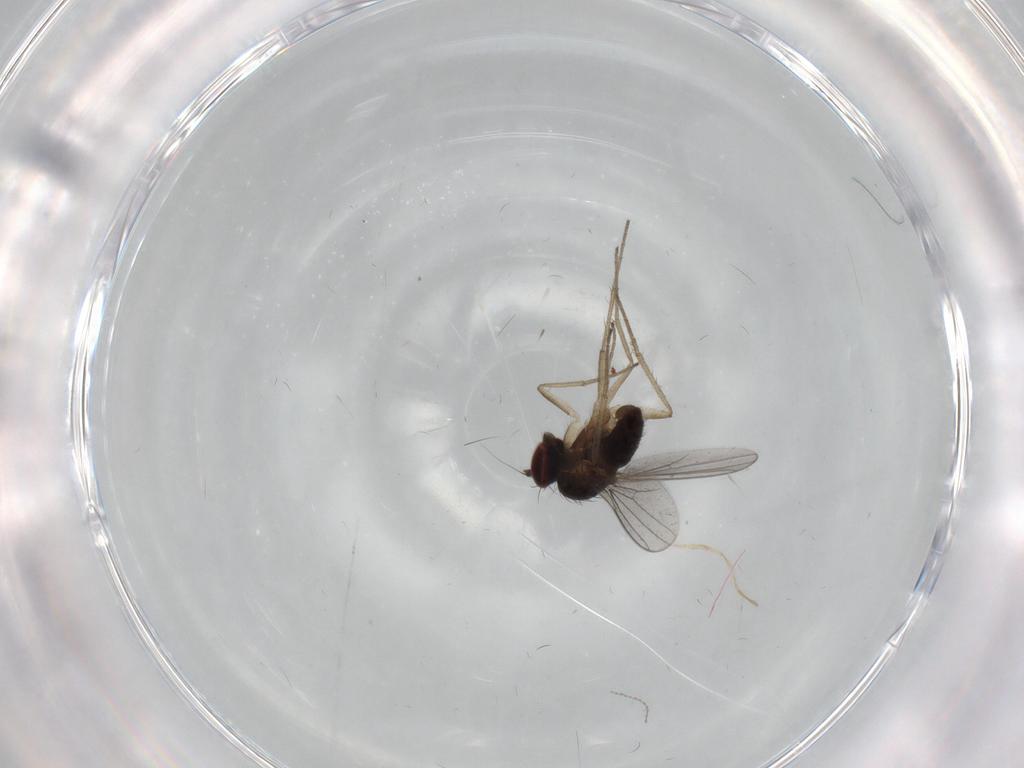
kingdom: Animalia
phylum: Arthropoda
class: Insecta
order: Diptera
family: Dolichopodidae
